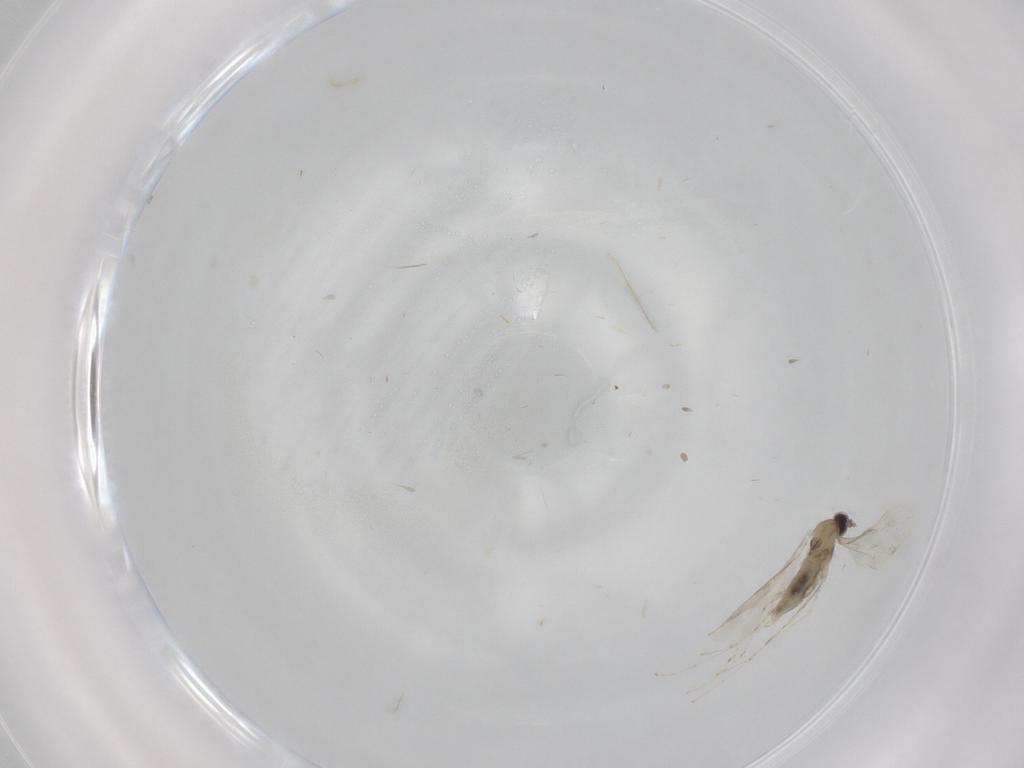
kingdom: Animalia
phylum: Arthropoda
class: Insecta
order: Diptera
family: Cecidomyiidae
